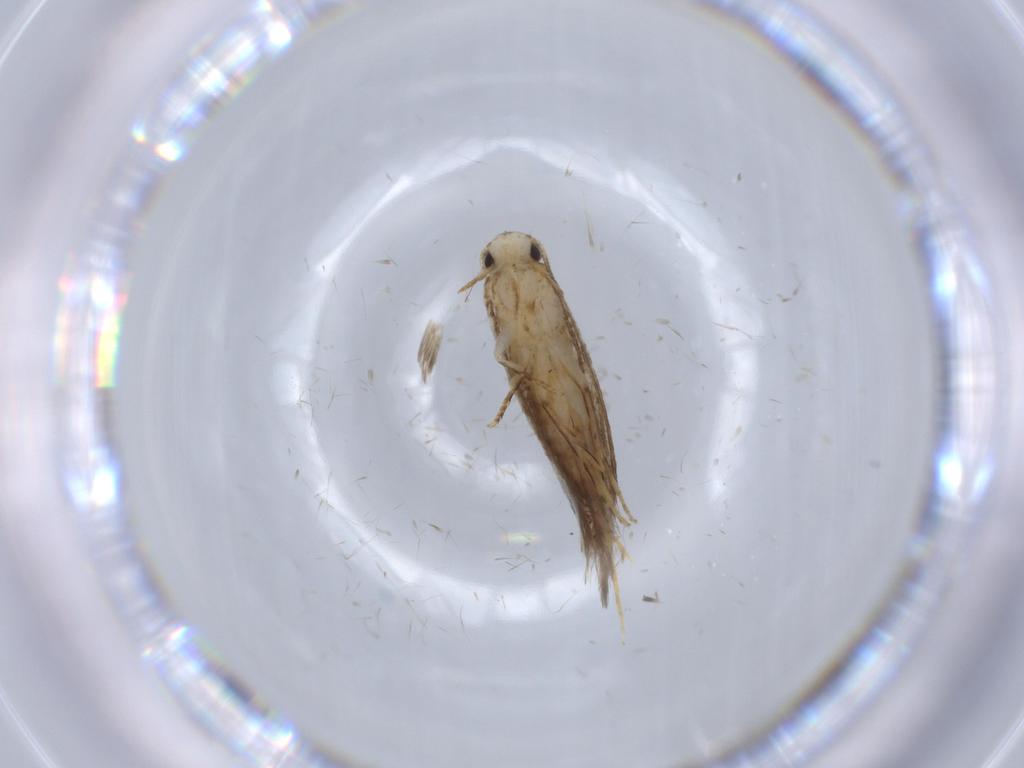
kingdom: Animalia
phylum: Arthropoda
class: Insecta
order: Lepidoptera
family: Tineidae
